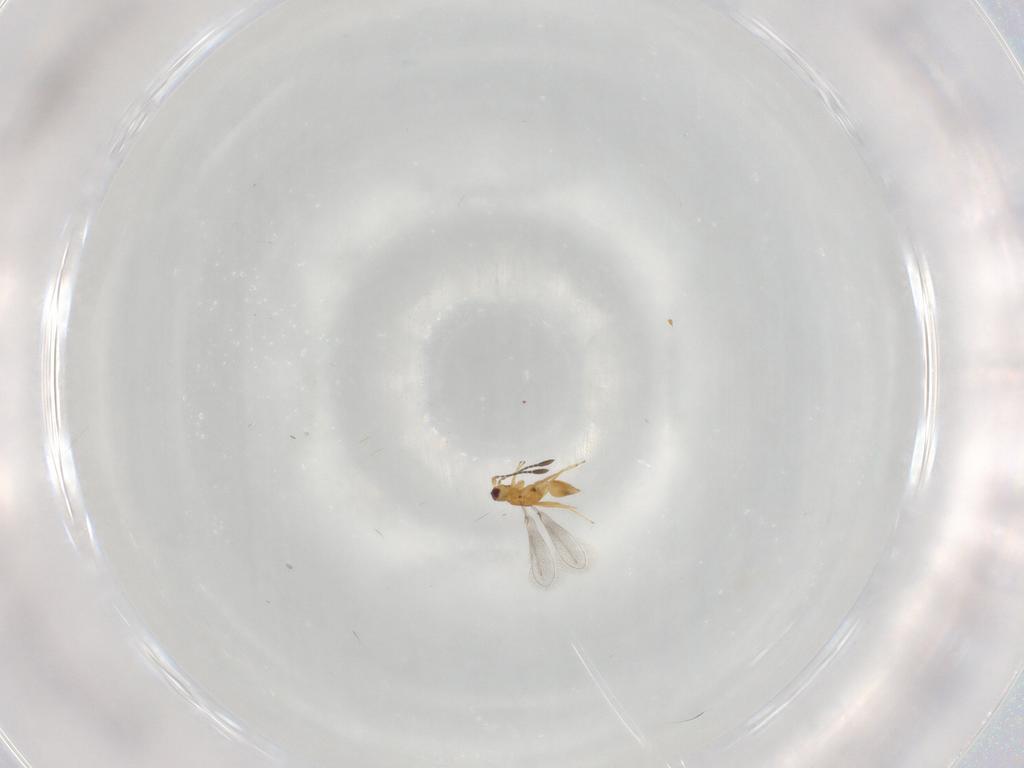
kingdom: Animalia
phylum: Arthropoda
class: Insecta
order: Hymenoptera
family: Mymaridae
